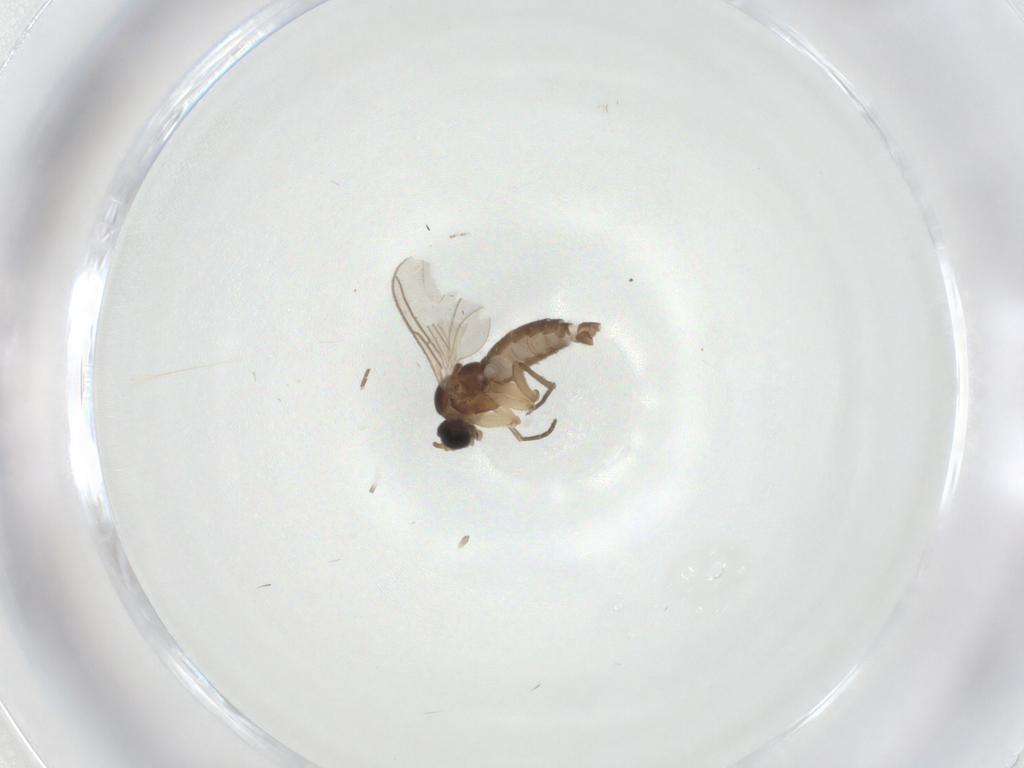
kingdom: Animalia
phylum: Arthropoda
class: Insecta
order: Diptera
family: Sciaridae
